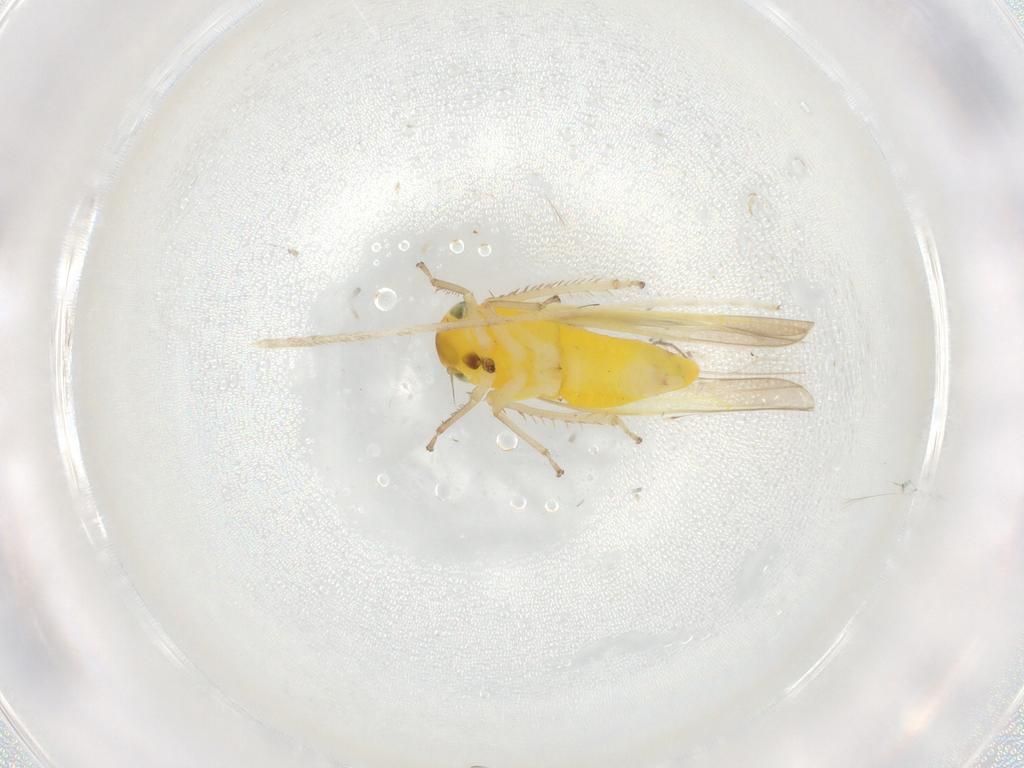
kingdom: Animalia
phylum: Arthropoda
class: Insecta
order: Hemiptera
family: Cicadellidae
